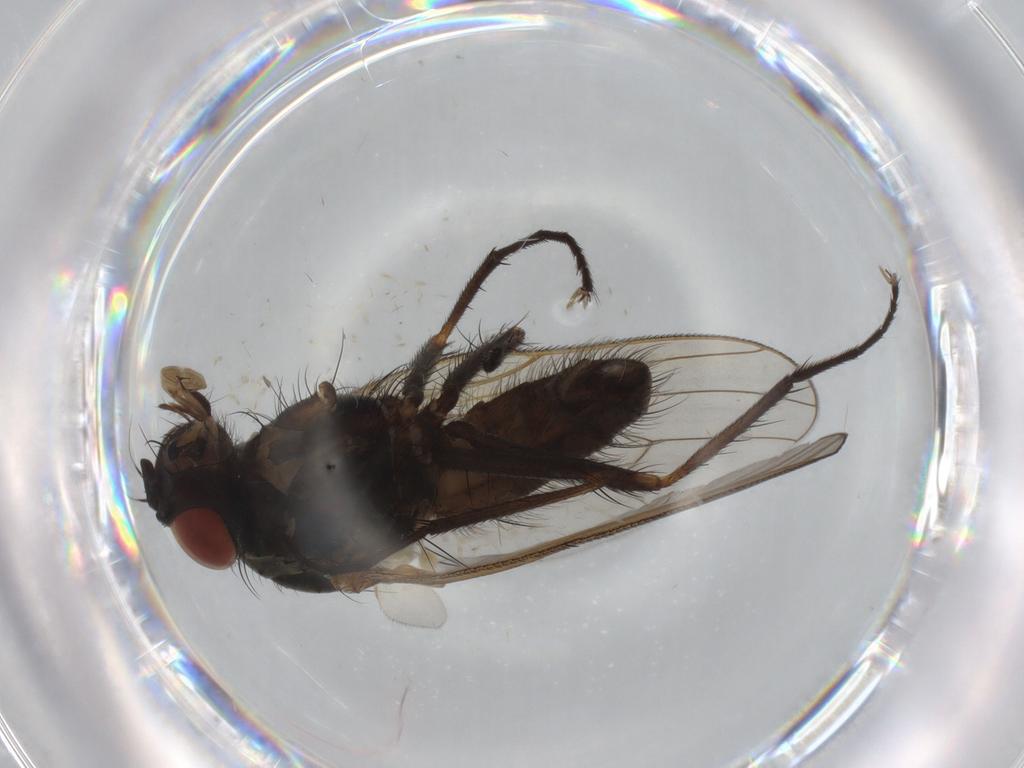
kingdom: Animalia
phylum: Arthropoda
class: Insecta
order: Diptera
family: Anthomyiidae
